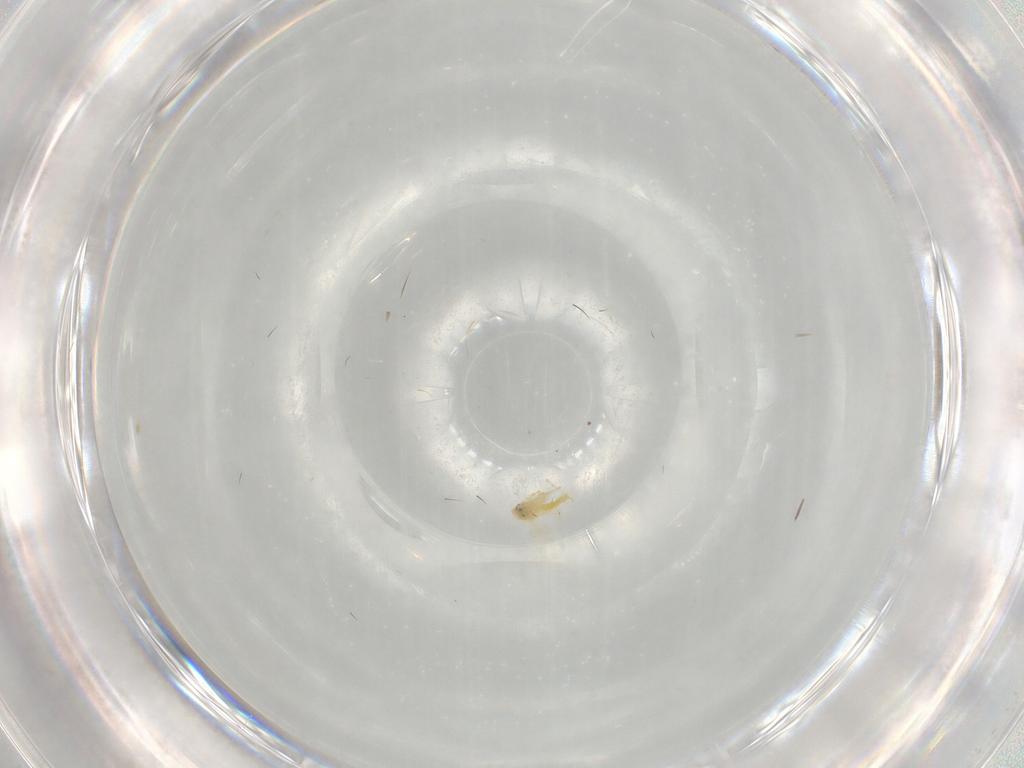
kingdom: Animalia
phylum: Arthropoda
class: Insecta
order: Hemiptera
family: Aleyrodidae
